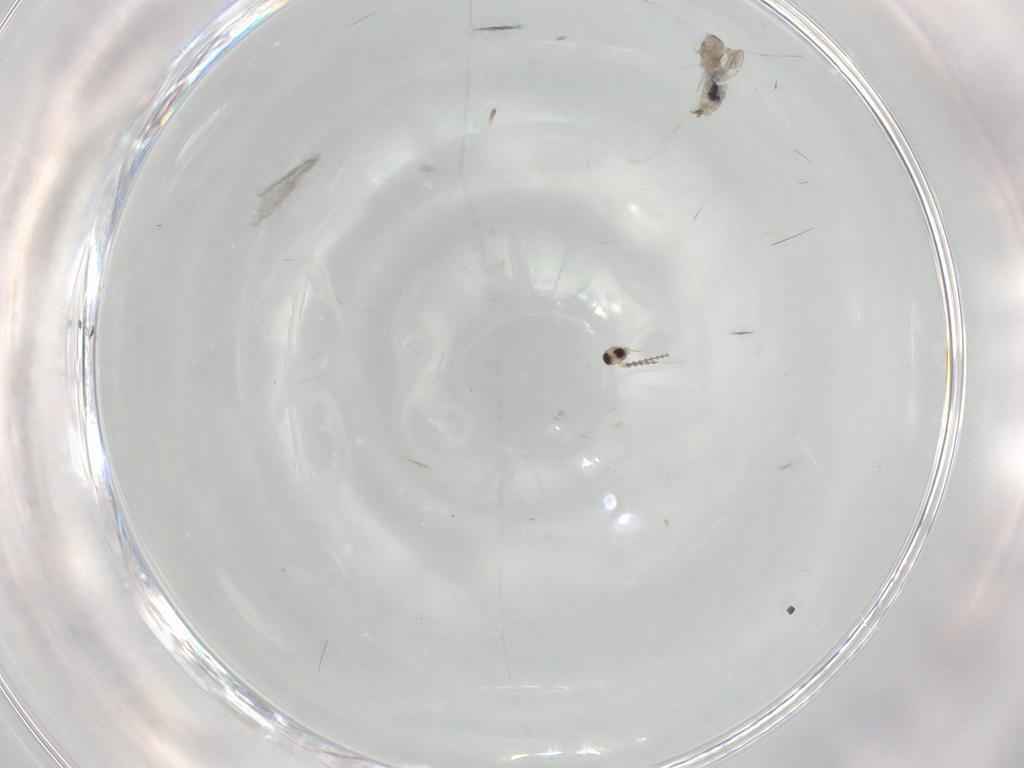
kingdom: Animalia
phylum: Arthropoda
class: Insecta
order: Diptera
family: Cecidomyiidae
